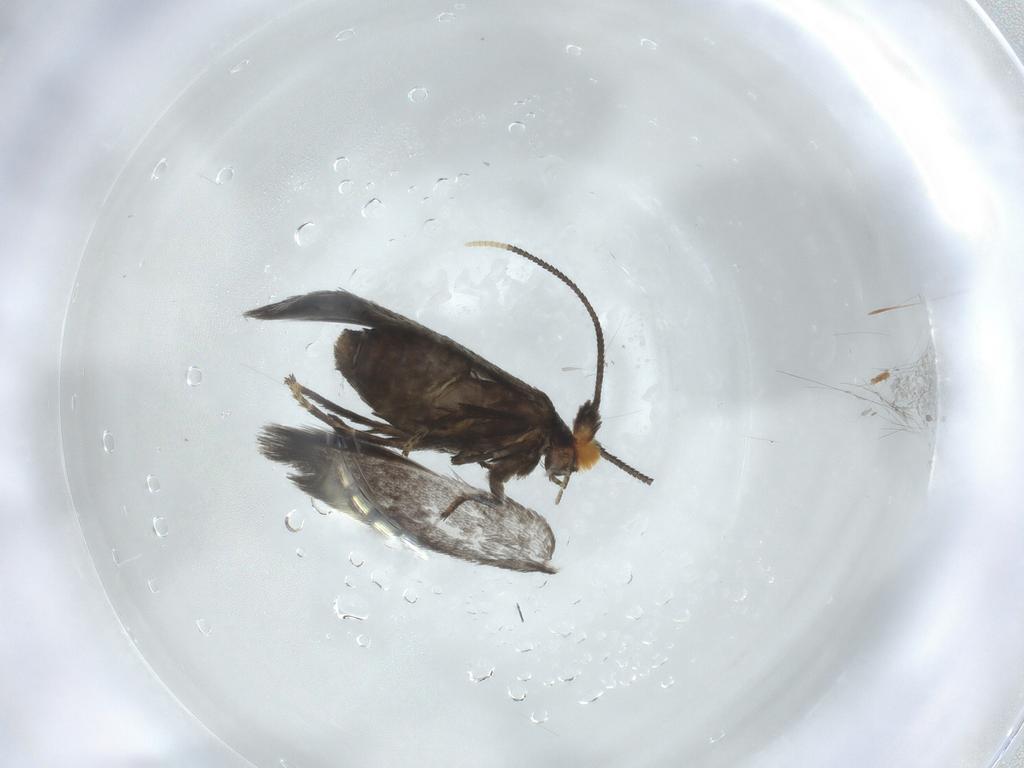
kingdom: Animalia
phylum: Arthropoda
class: Insecta
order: Lepidoptera
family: Nepticulidae
